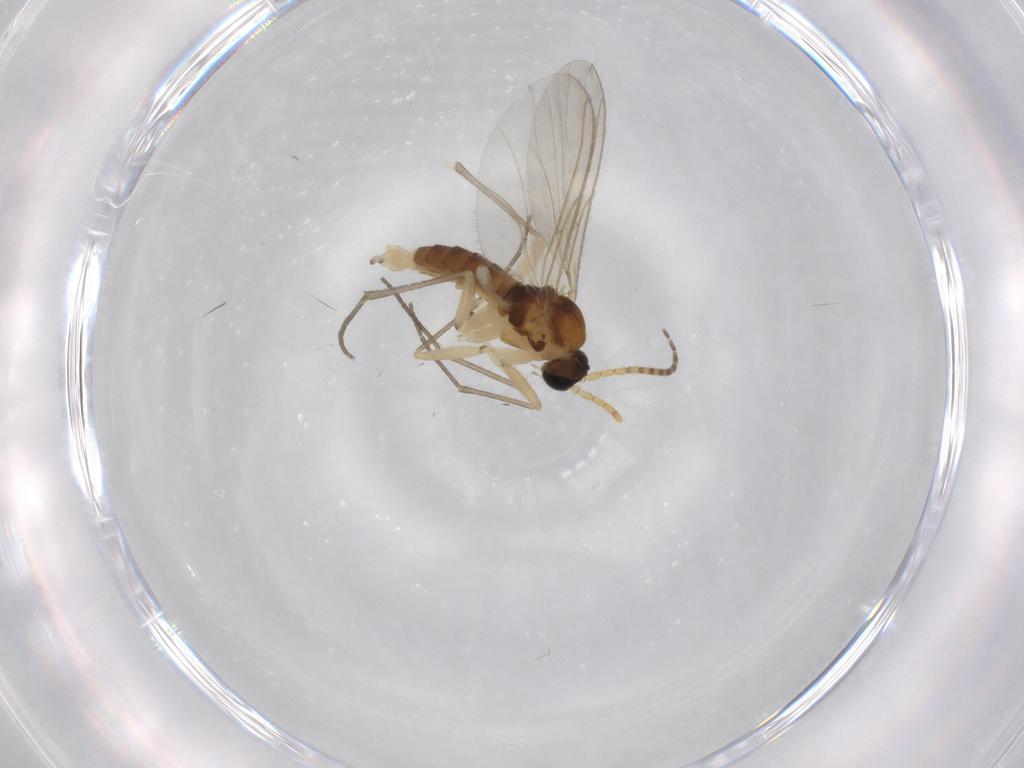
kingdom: Animalia
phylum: Arthropoda
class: Insecta
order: Diptera
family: Sciaridae
